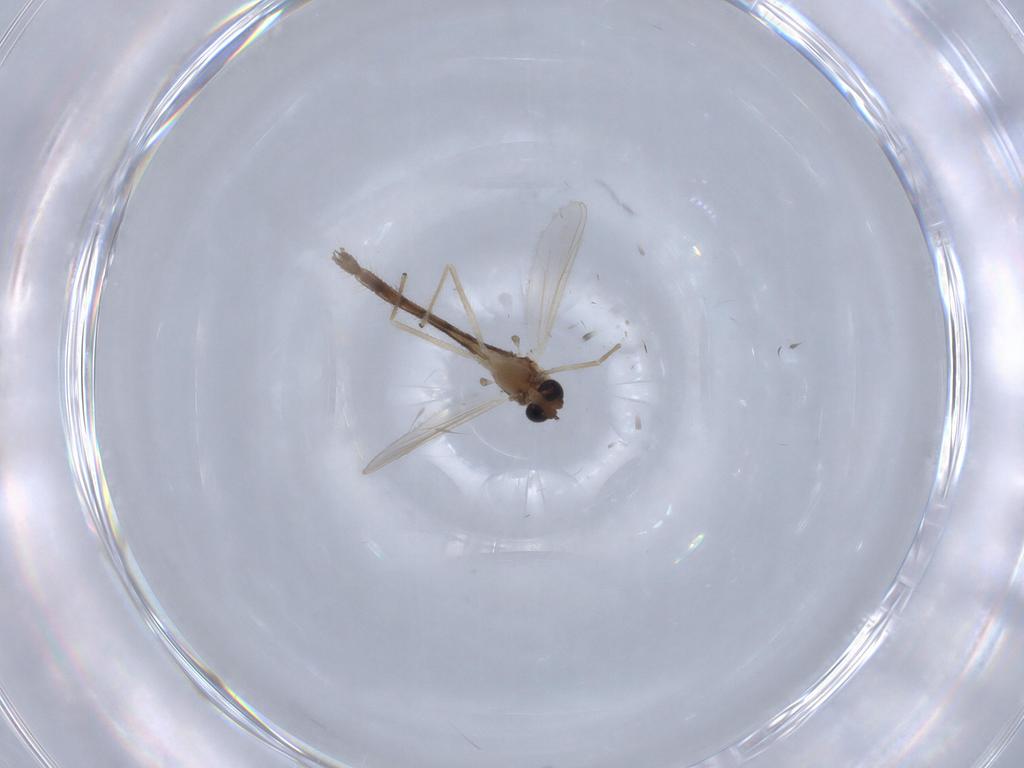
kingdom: Animalia
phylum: Arthropoda
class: Insecta
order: Diptera
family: Chironomidae
